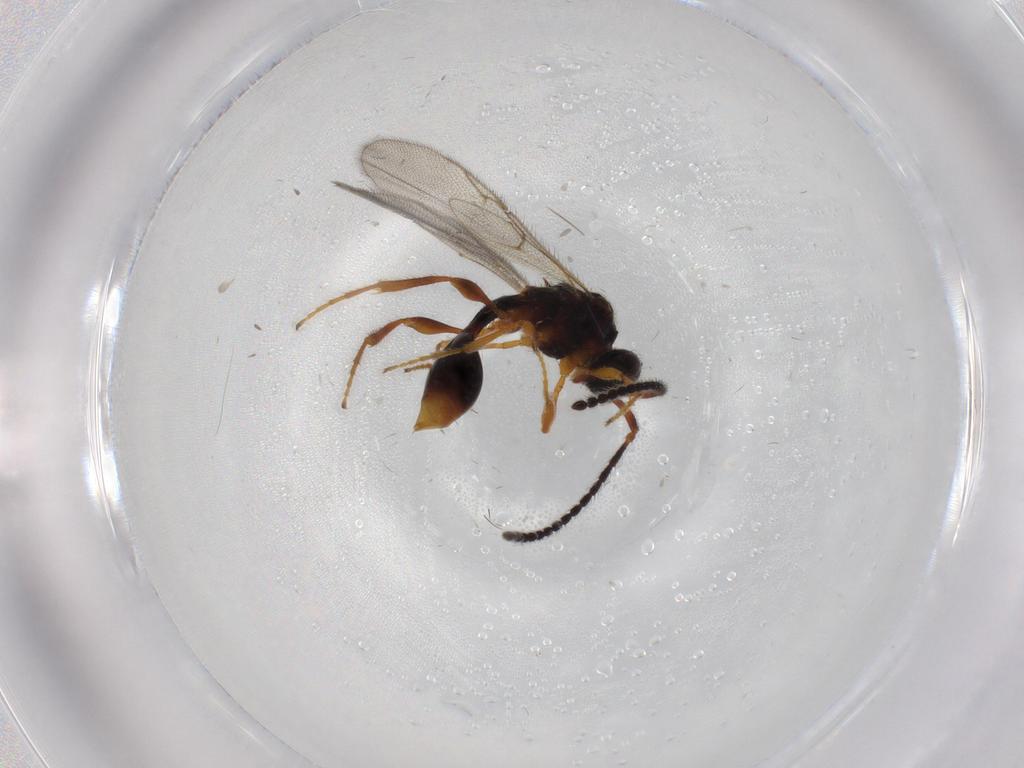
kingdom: Animalia
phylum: Arthropoda
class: Insecta
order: Hymenoptera
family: Diapriidae
